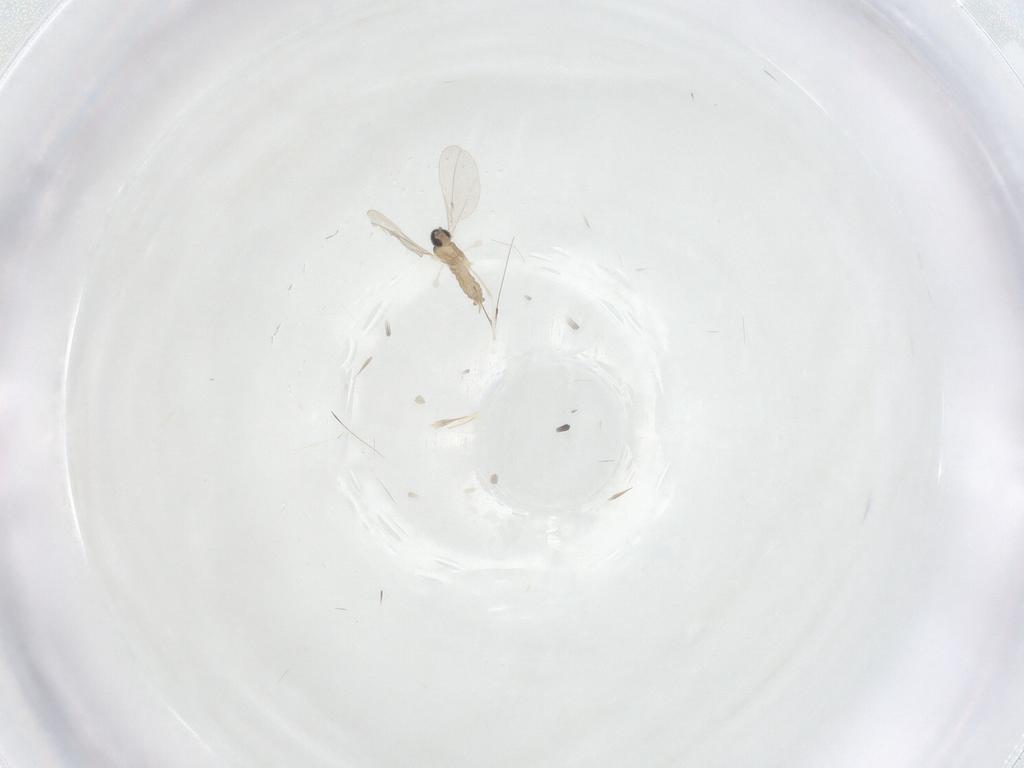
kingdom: Animalia
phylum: Arthropoda
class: Insecta
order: Diptera
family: Cecidomyiidae
